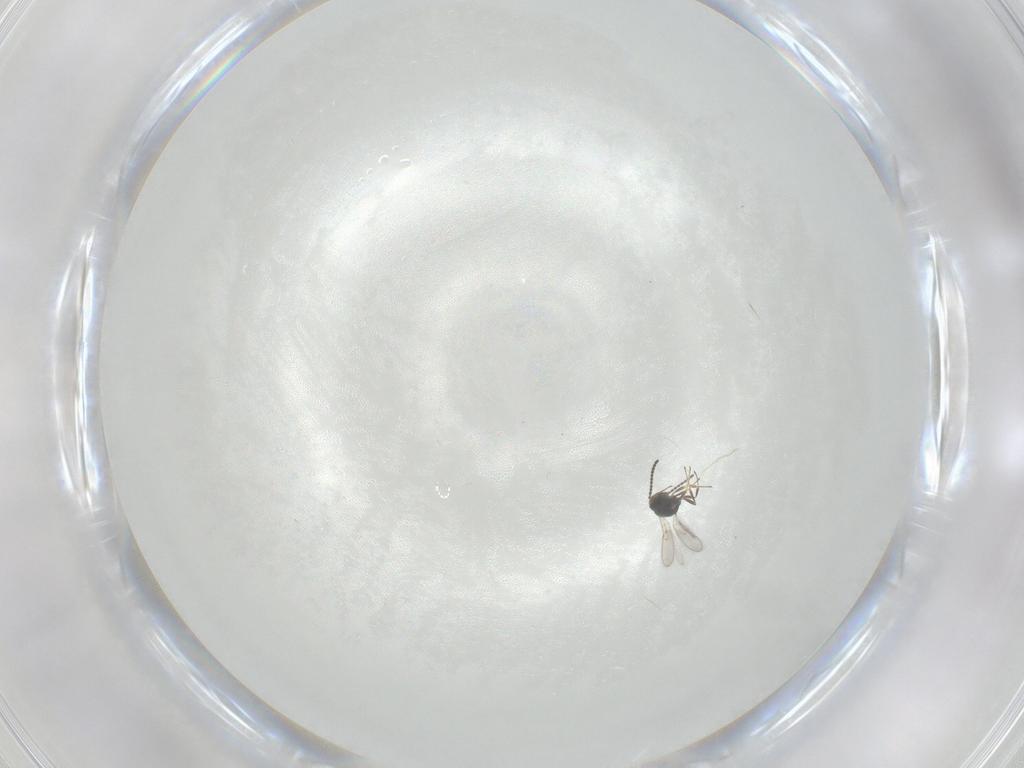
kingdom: Animalia
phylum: Arthropoda
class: Insecta
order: Hymenoptera
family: Scelionidae
